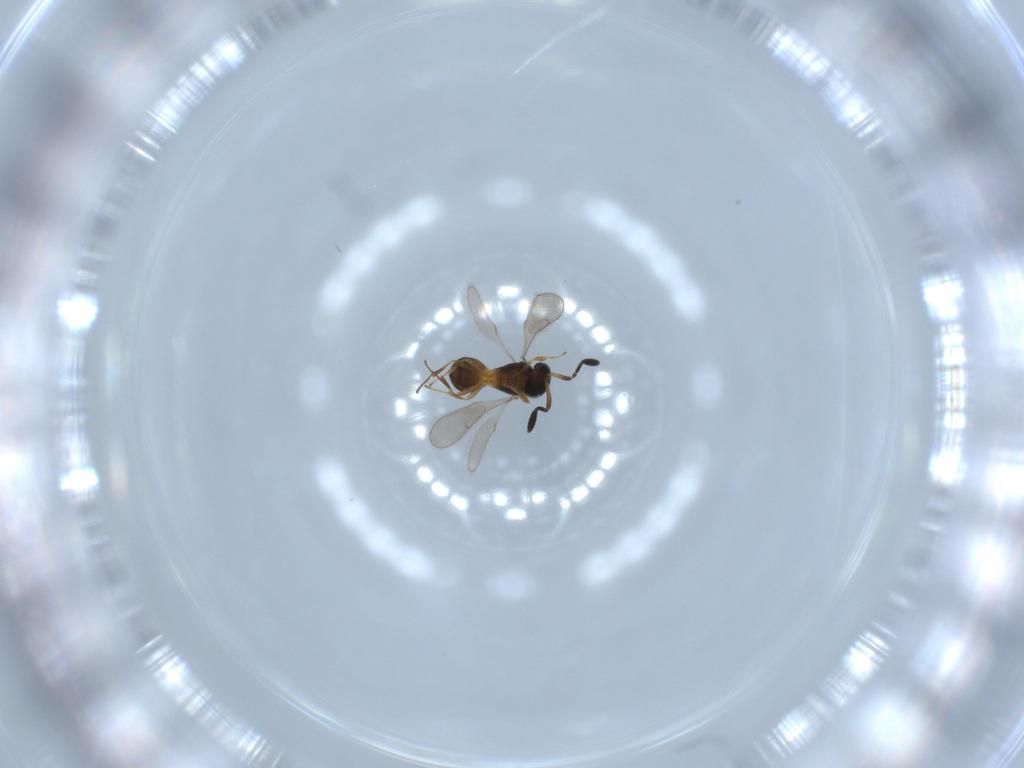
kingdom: Animalia
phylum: Arthropoda
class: Insecta
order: Hymenoptera
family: Scelionidae
